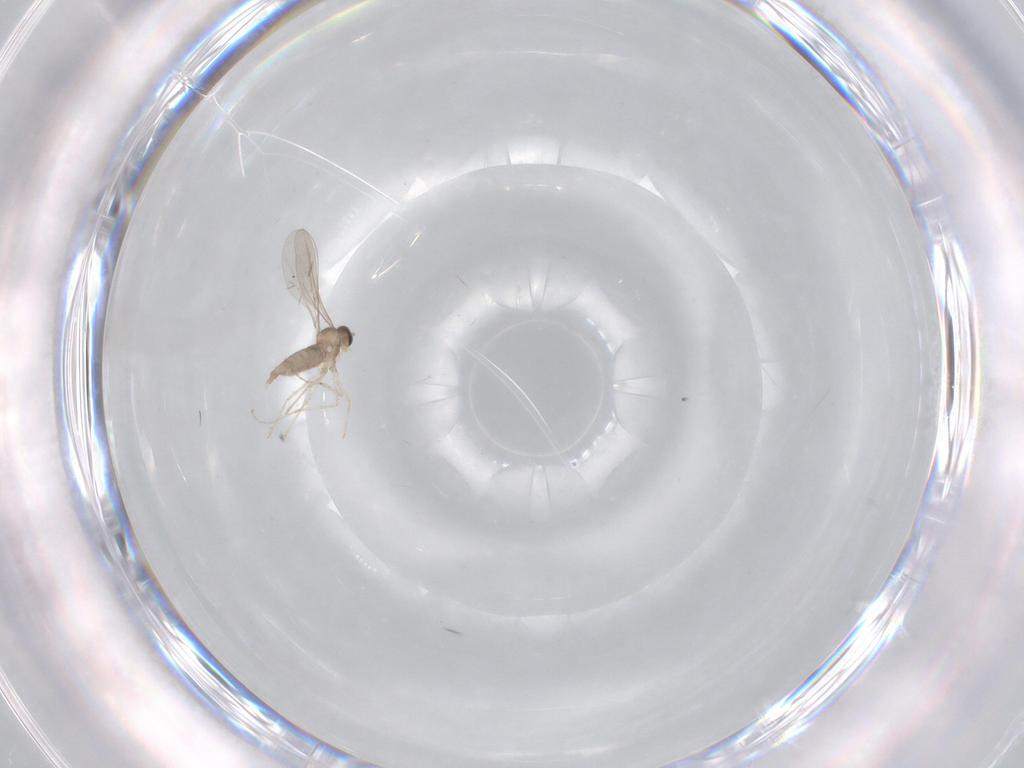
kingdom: Animalia
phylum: Arthropoda
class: Insecta
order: Diptera
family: Chironomidae
